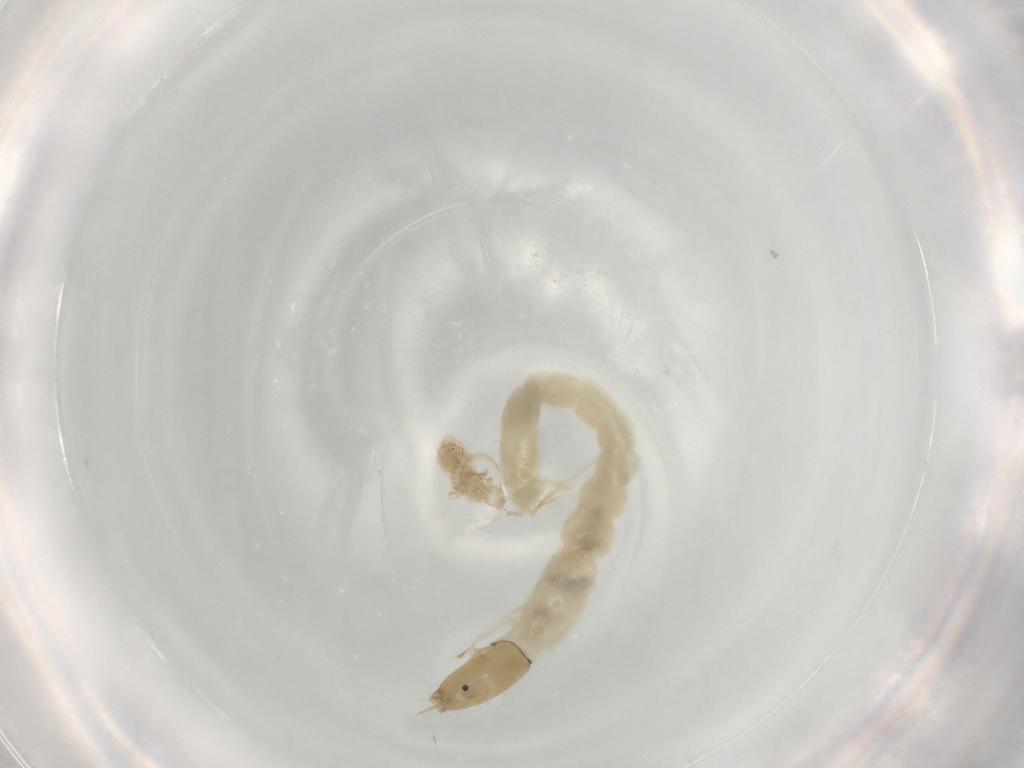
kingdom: Animalia
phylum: Arthropoda
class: Insecta
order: Diptera
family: Chironomidae
